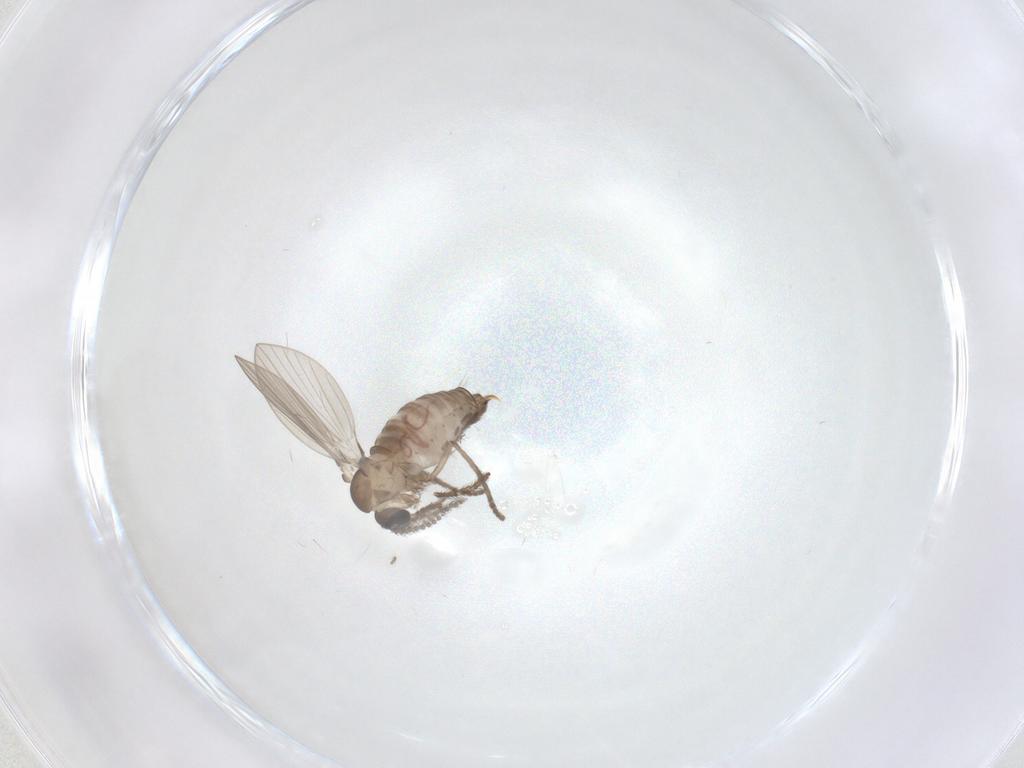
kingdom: Animalia
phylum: Arthropoda
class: Insecta
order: Diptera
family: Psychodidae
